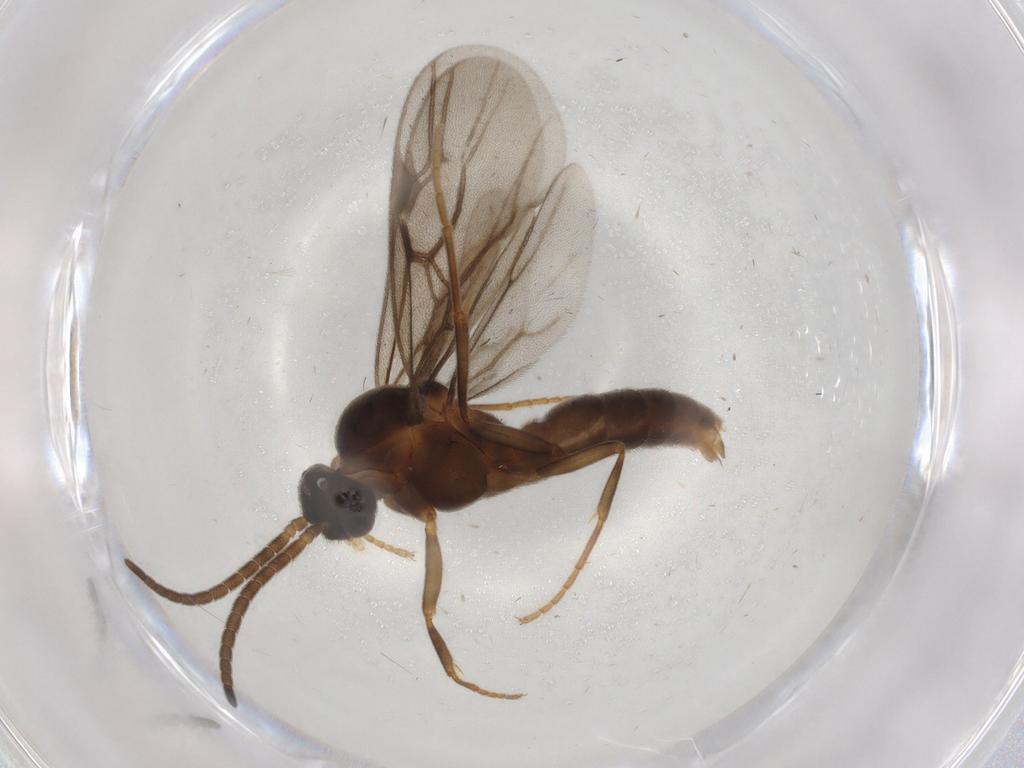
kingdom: Animalia
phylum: Arthropoda
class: Insecta
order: Hymenoptera
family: Formicidae
